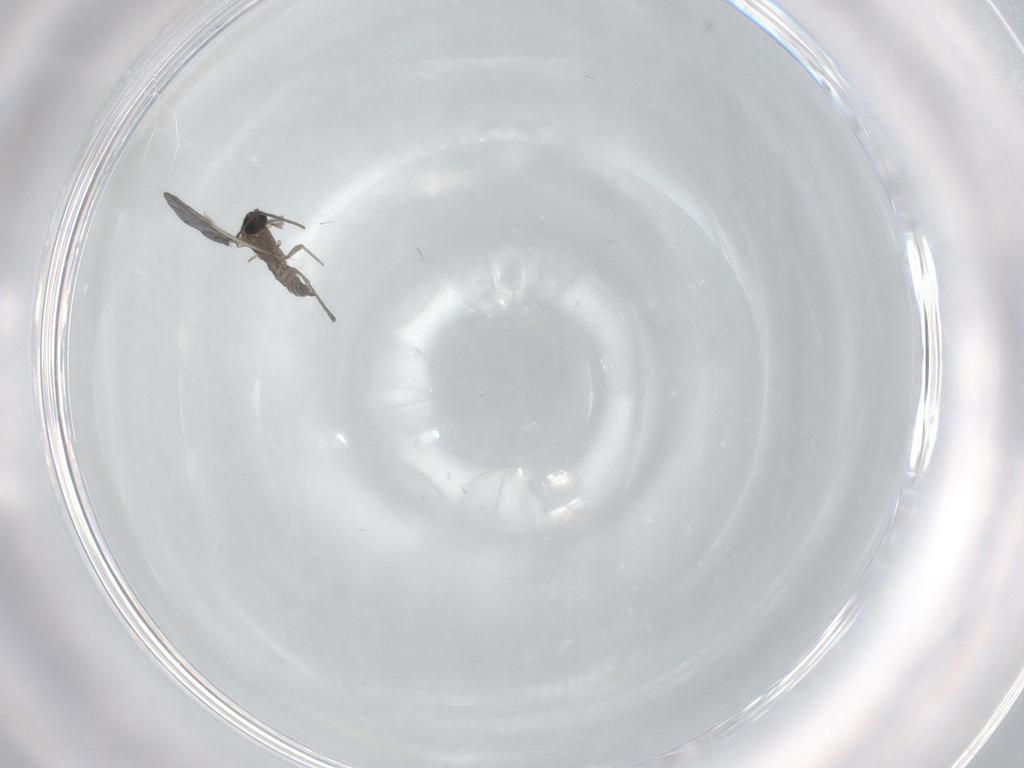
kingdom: Animalia
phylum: Arthropoda
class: Insecta
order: Diptera
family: Sciaridae
